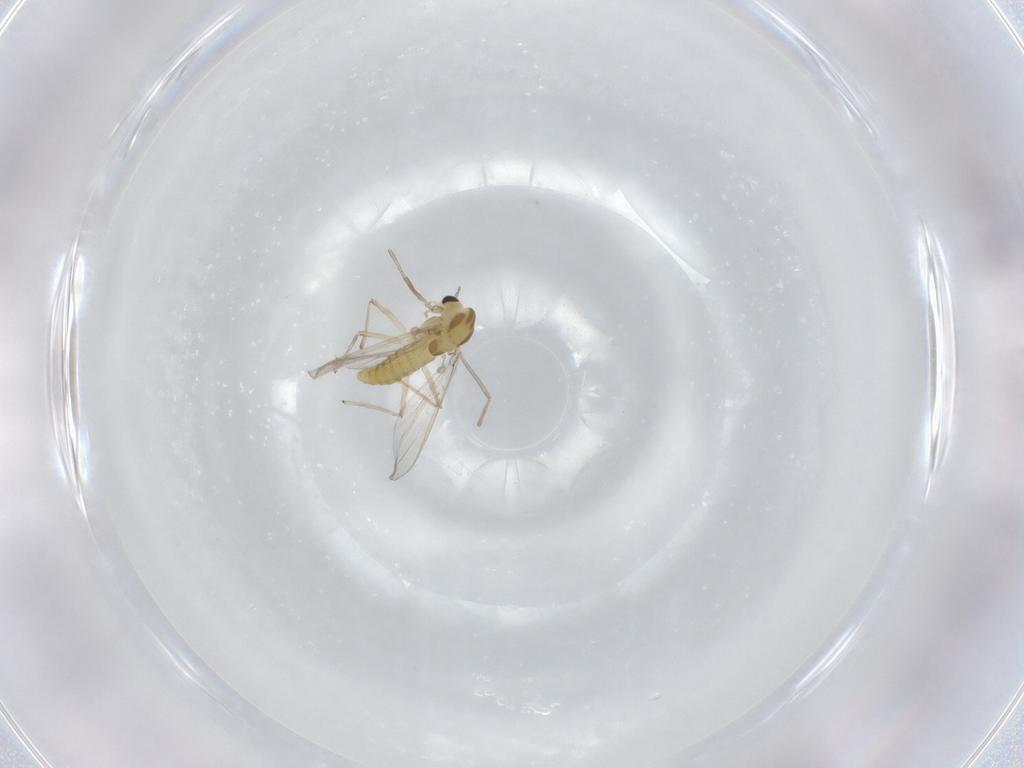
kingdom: Animalia
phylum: Arthropoda
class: Insecta
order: Diptera
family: Chironomidae
